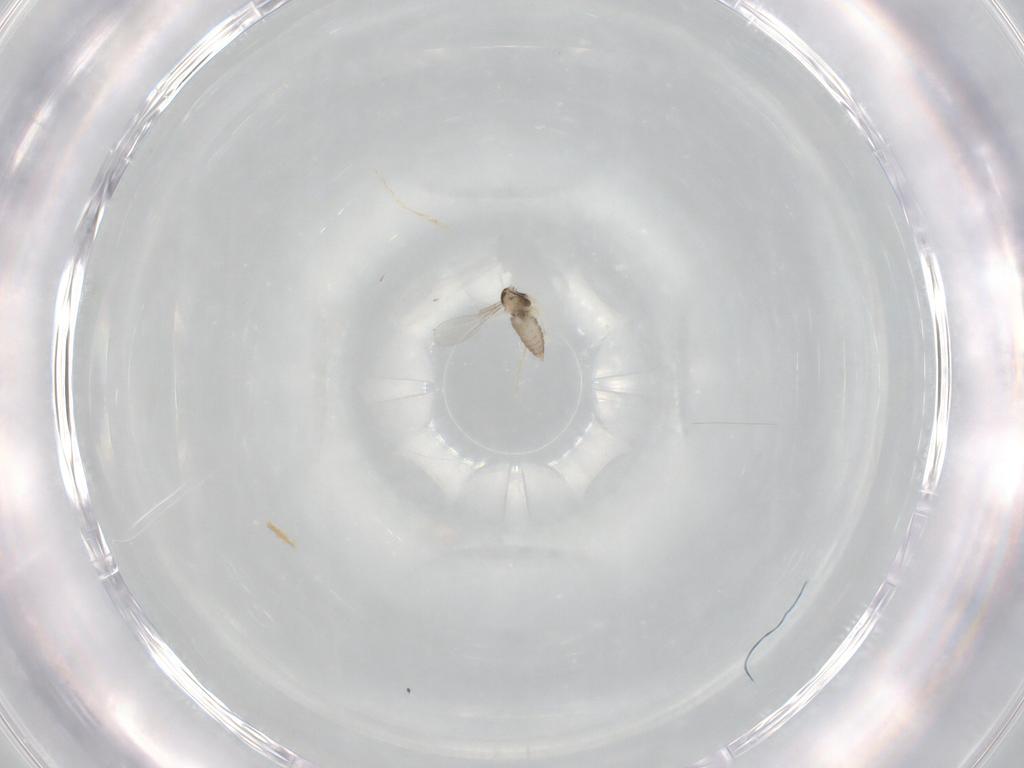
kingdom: Animalia
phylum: Arthropoda
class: Insecta
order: Diptera
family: Cecidomyiidae
